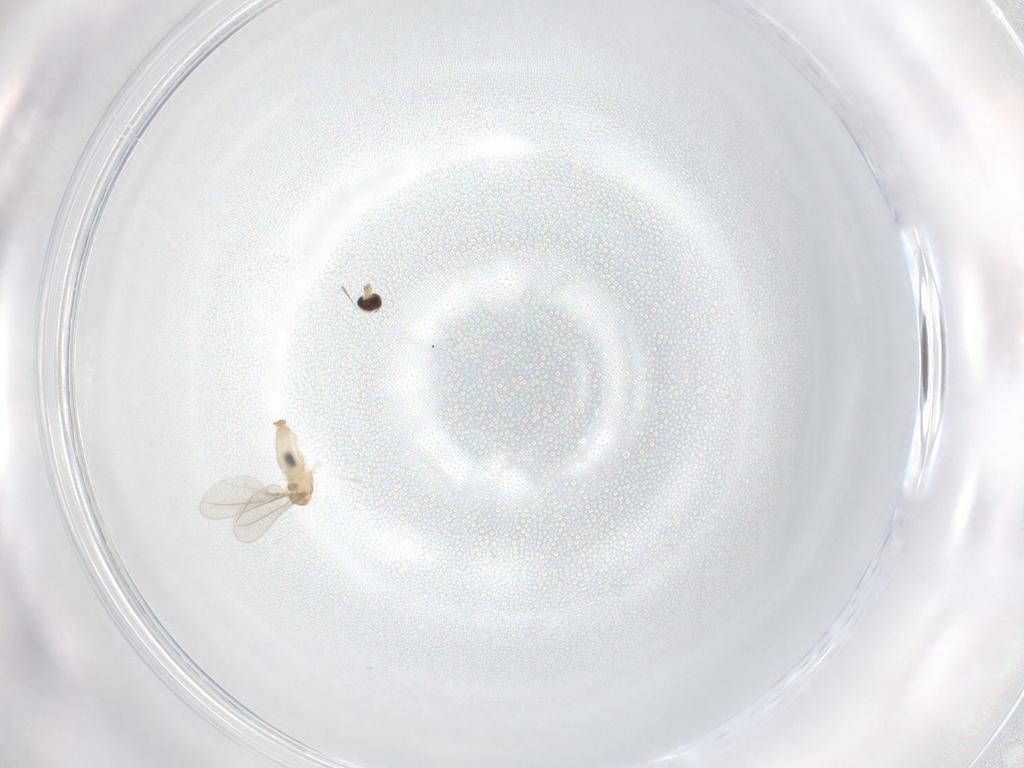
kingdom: Animalia
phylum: Arthropoda
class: Insecta
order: Diptera
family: Cecidomyiidae
